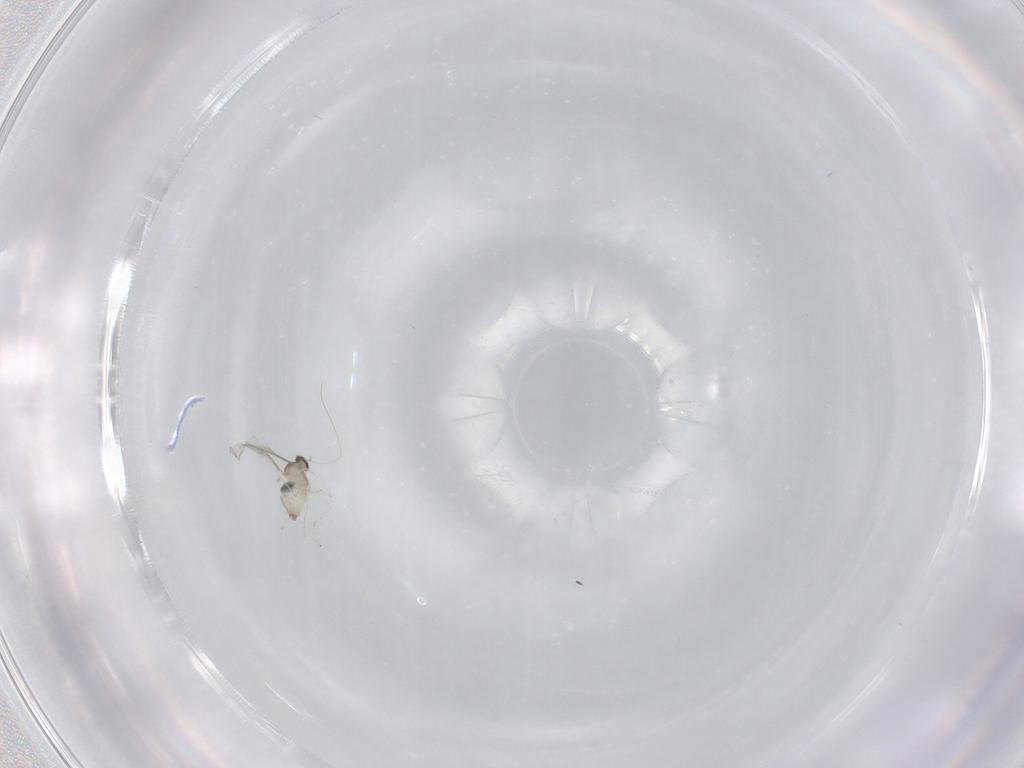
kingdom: Animalia
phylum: Arthropoda
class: Insecta
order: Diptera
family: Cecidomyiidae
